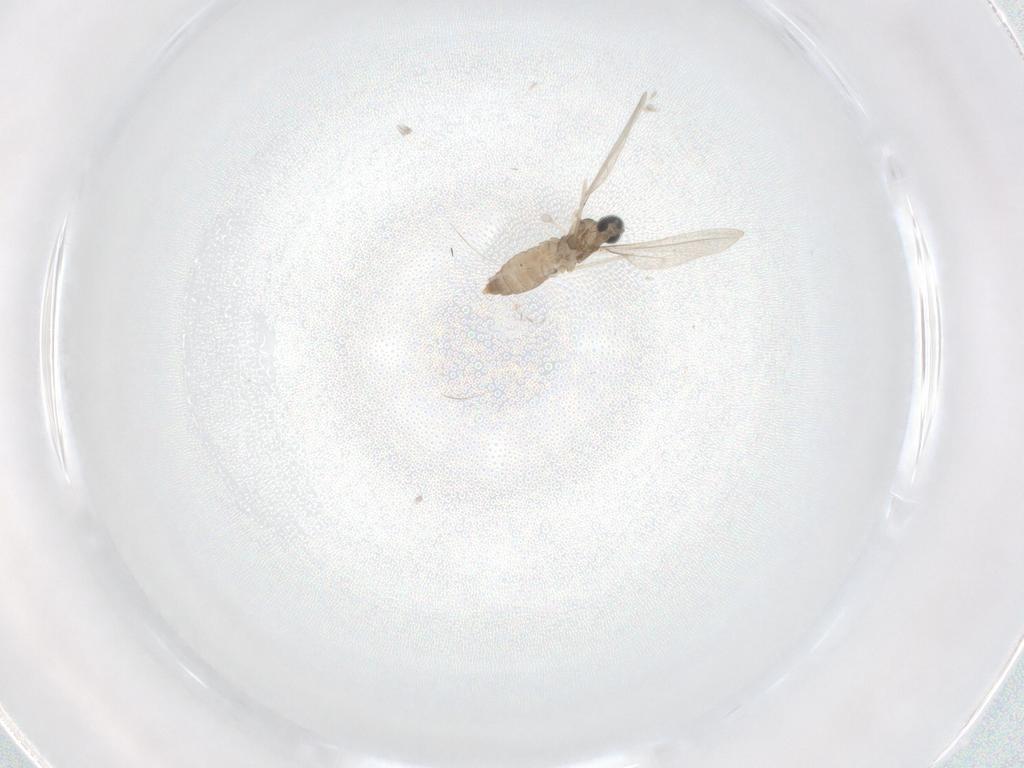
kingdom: Animalia
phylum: Arthropoda
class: Insecta
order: Diptera
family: Cecidomyiidae
